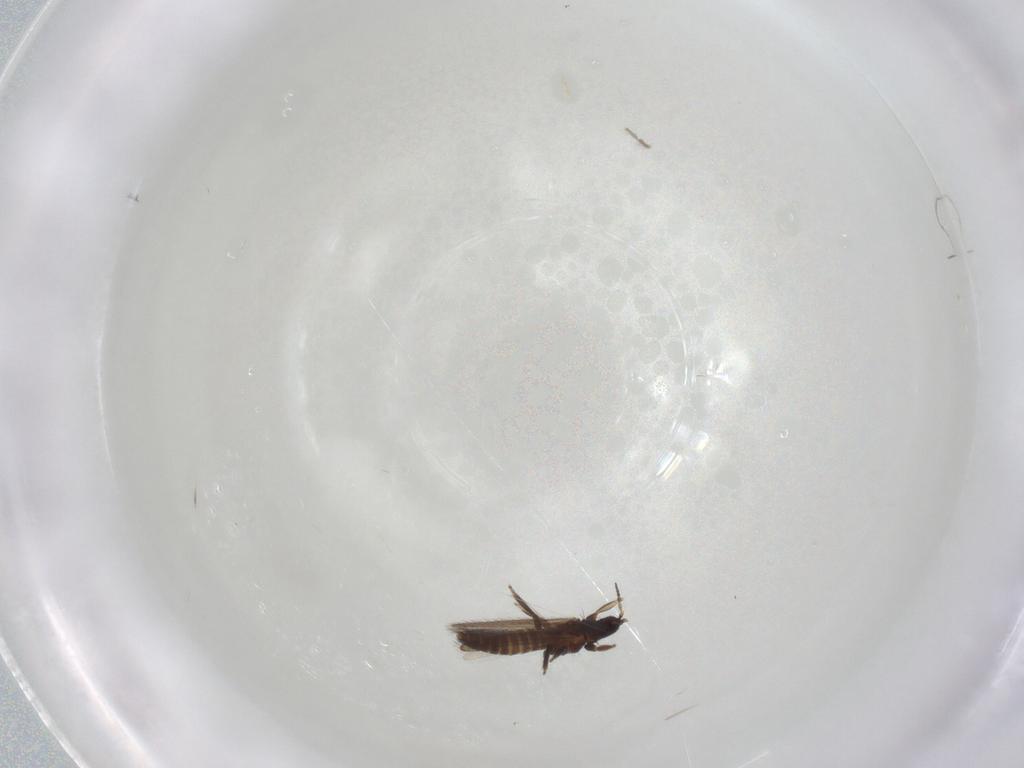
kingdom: Animalia
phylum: Arthropoda
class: Insecta
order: Thysanoptera
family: Melanthripidae
